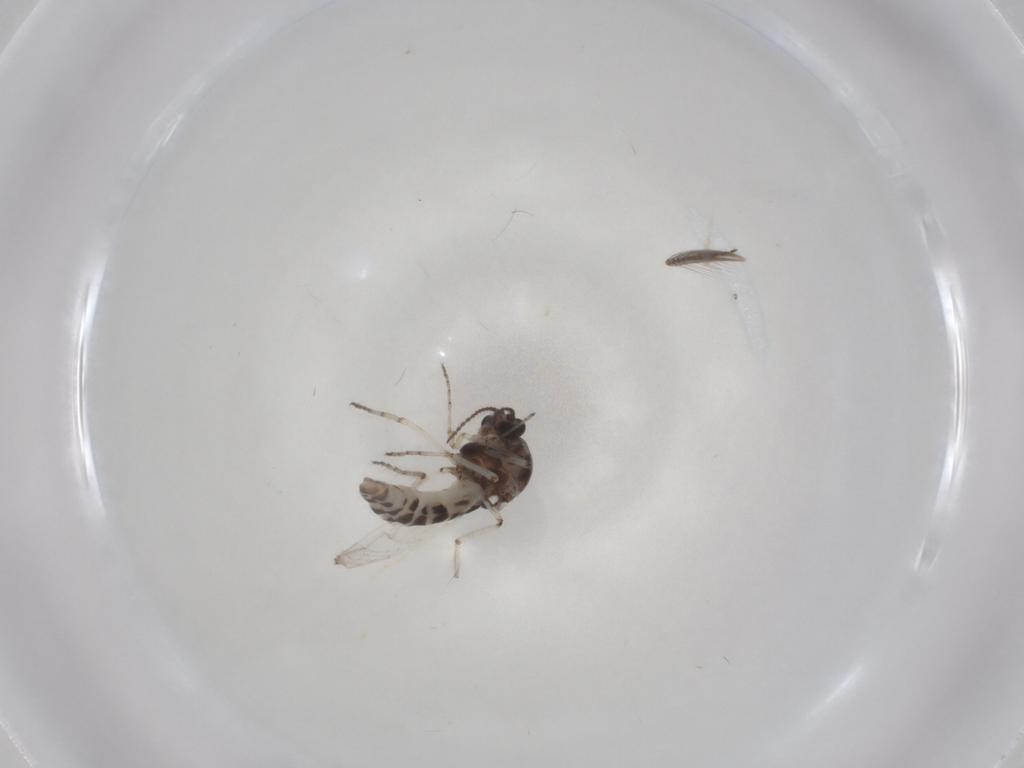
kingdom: Animalia
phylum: Arthropoda
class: Insecta
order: Diptera
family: Ceratopogonidae
